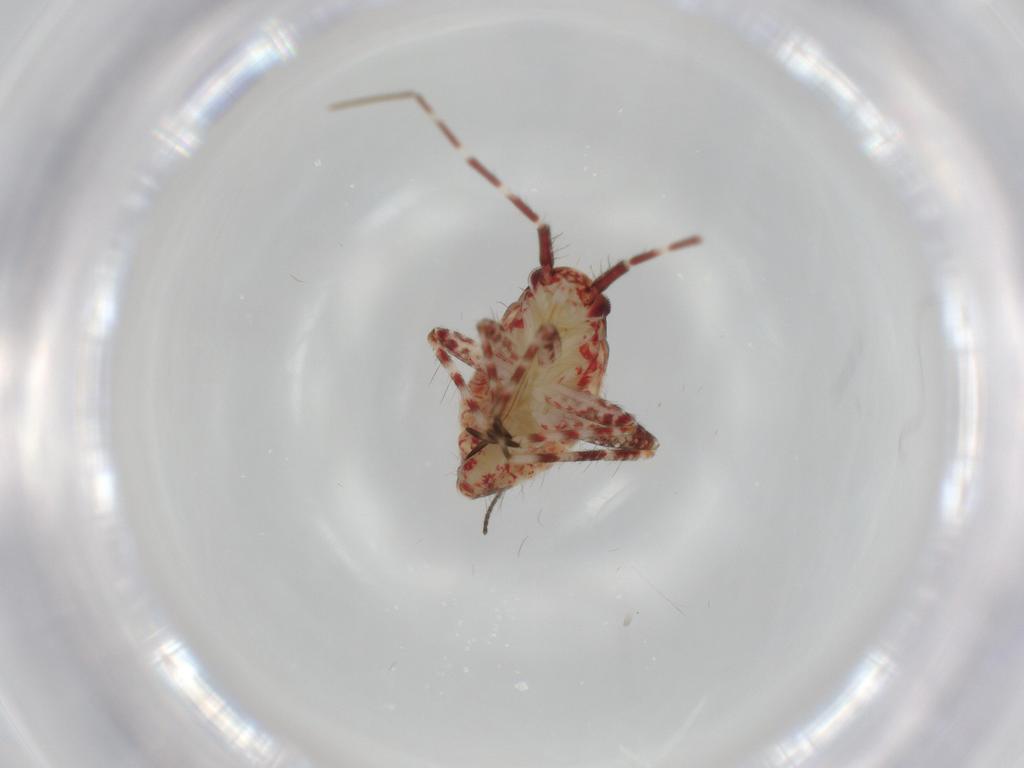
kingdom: Animalia
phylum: Arthropoda
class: Insecta
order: Hemiptera
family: Miridae
